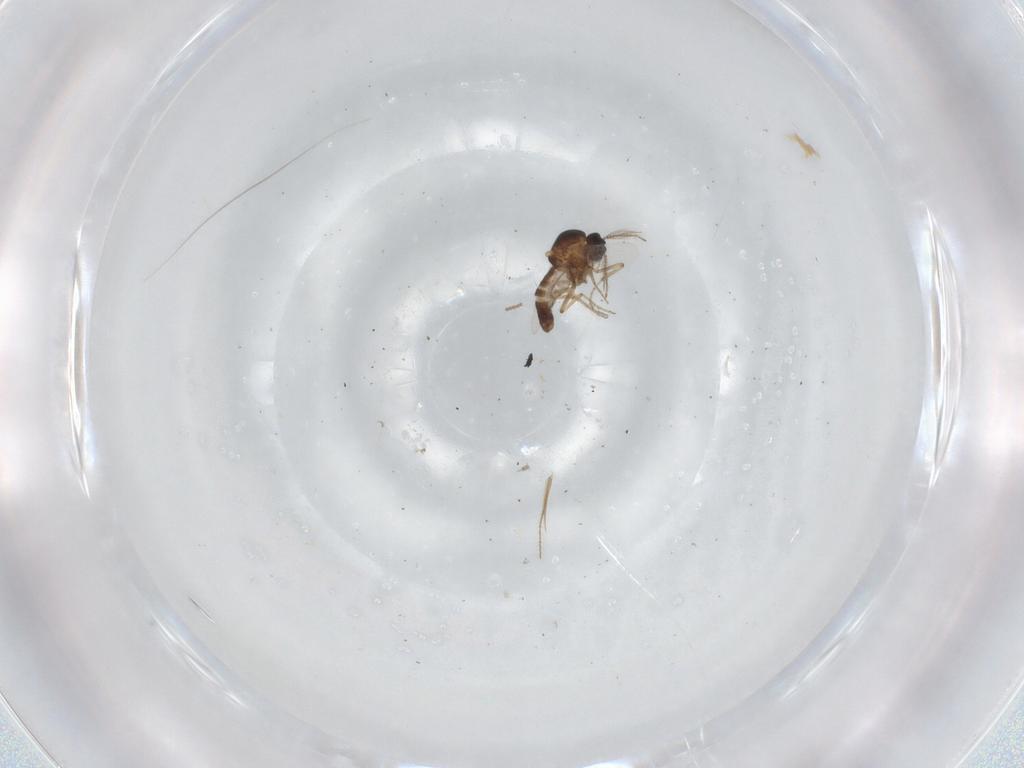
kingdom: Animalia
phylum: Arthropoda
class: Insecta
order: Diptera
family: Ceratopogonidae
